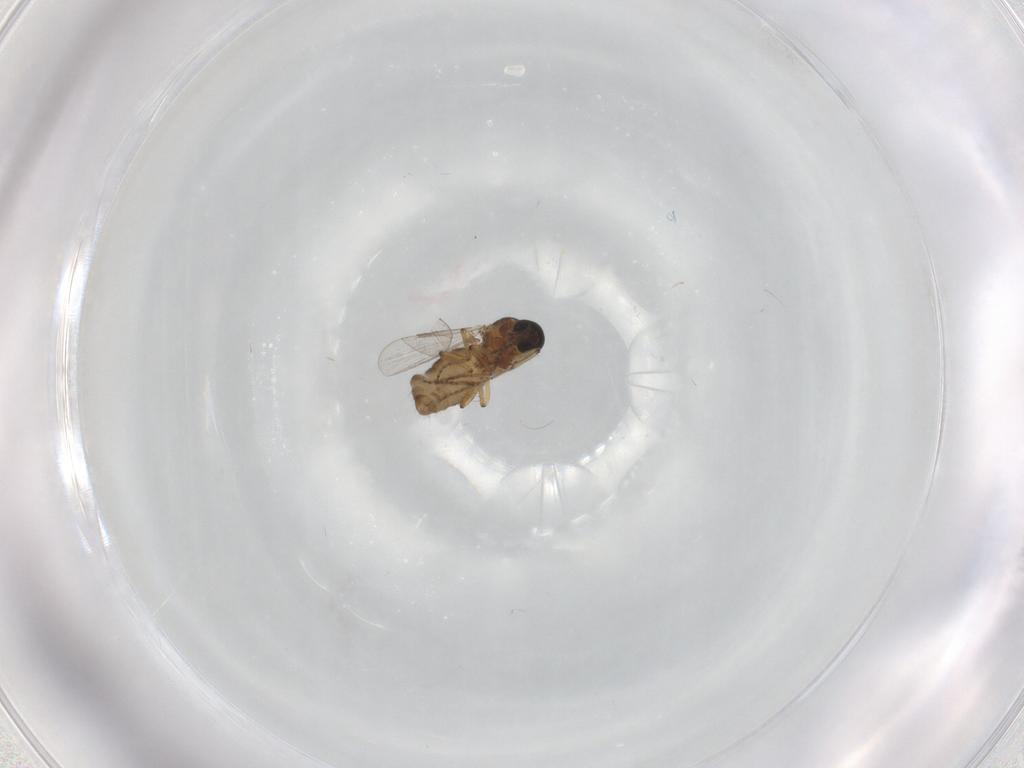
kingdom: Animalia
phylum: Arthropoda
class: Insecta
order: Diptera
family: Ceratopogonidae
